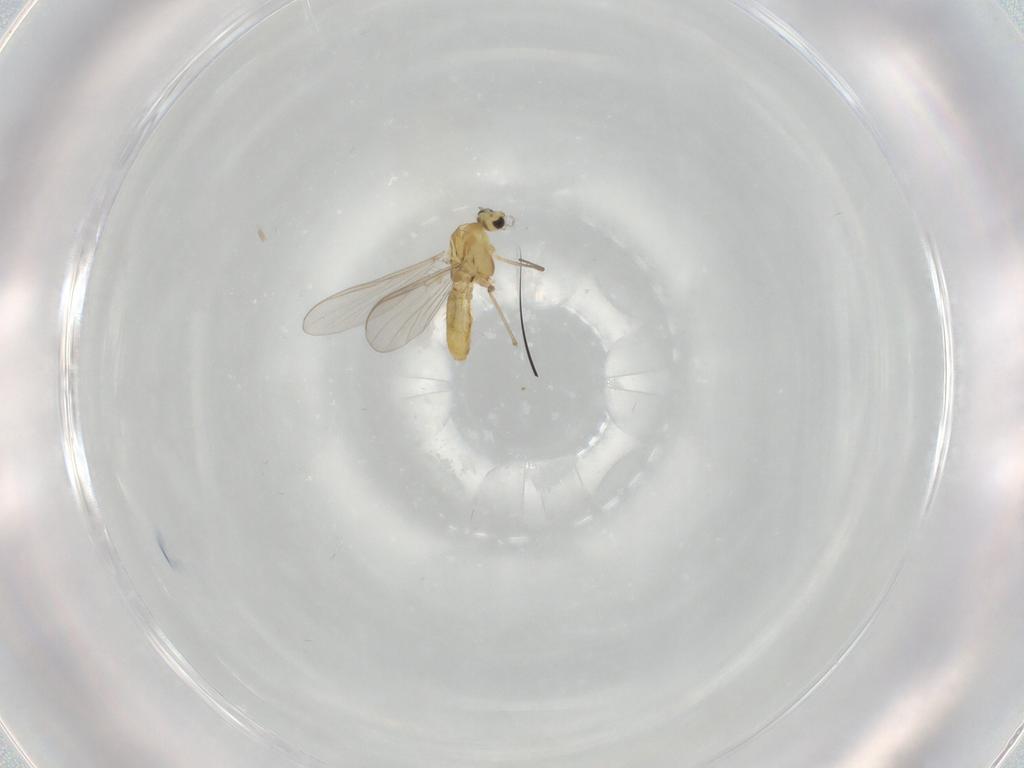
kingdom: Animalia
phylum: Arthropoda
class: Insecta
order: Diptera
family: Chironomidae
